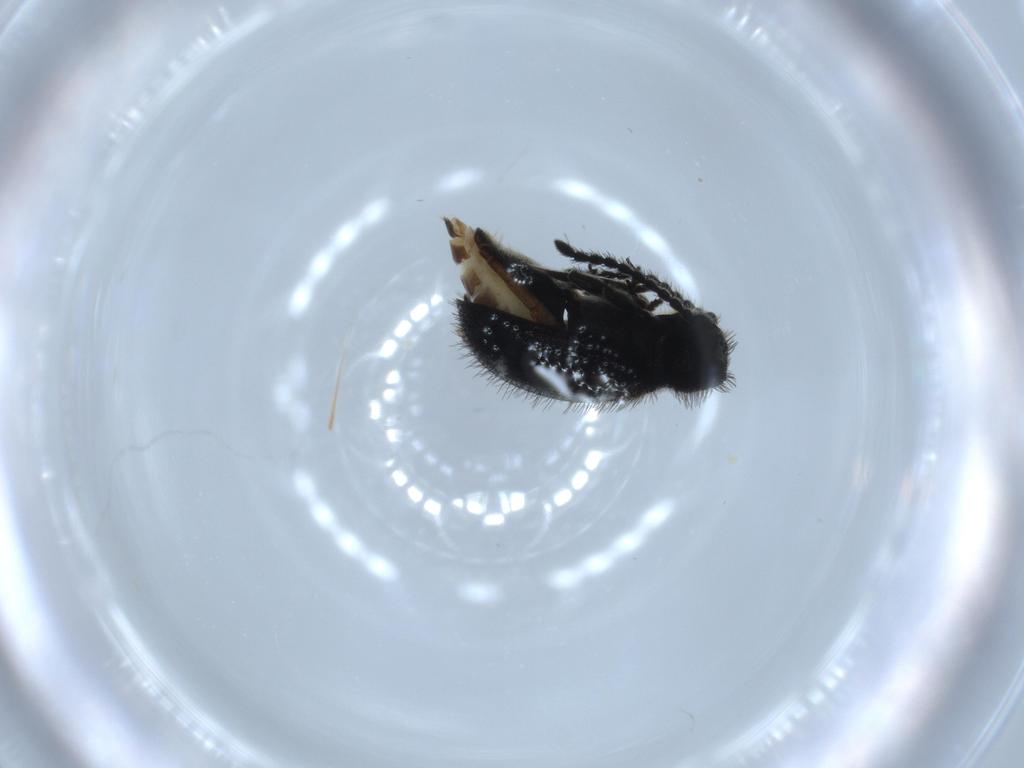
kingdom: Animalia
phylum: Arthropoda
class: Insecta
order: Coleoptera
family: Ptinidae
